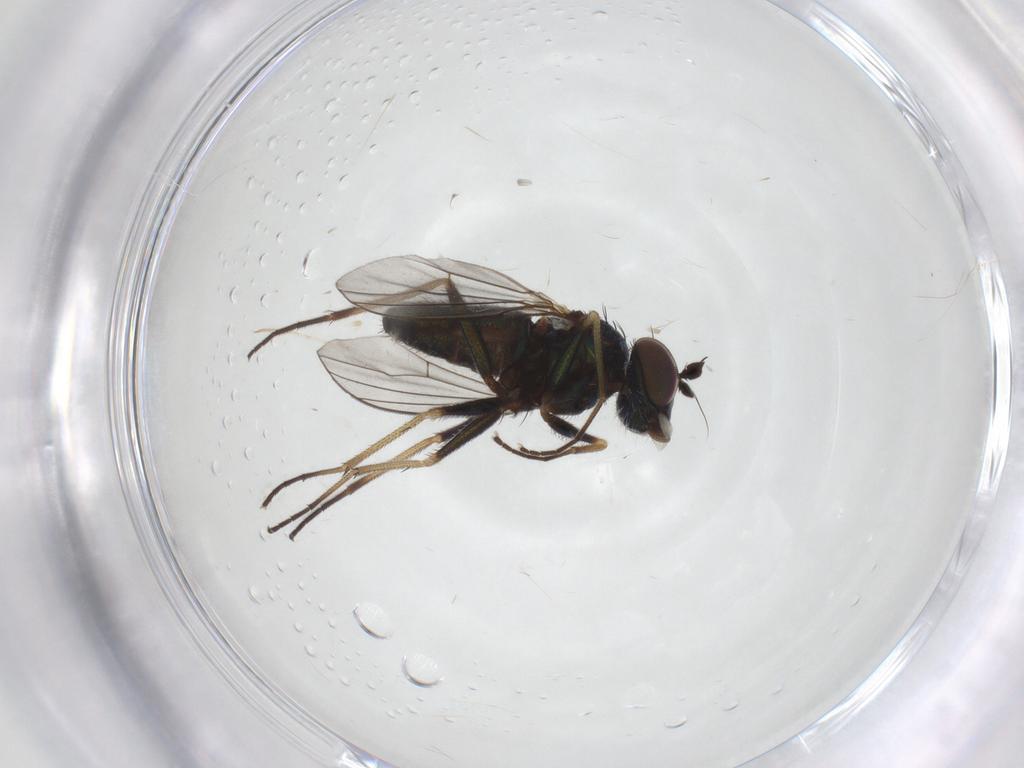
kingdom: Animalia
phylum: Arthropoda
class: Insecta
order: Diptera
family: Dolichopodidae
